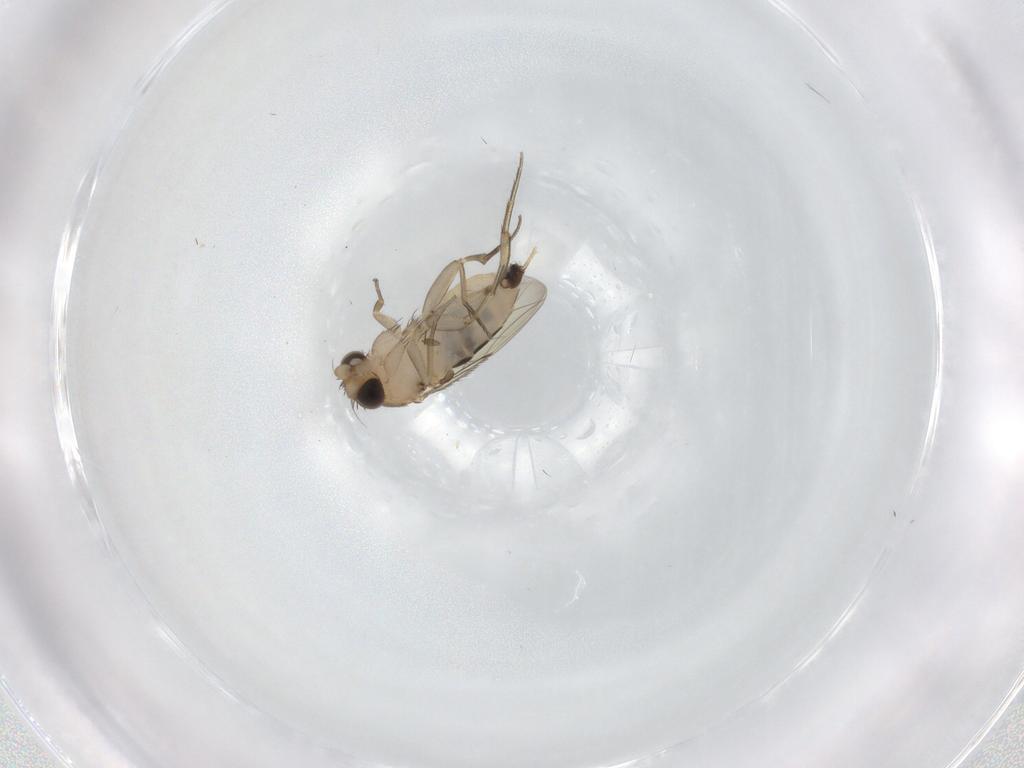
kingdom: Animalia
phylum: Arthropoda
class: Insecta
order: Diptera
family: Phoridae
